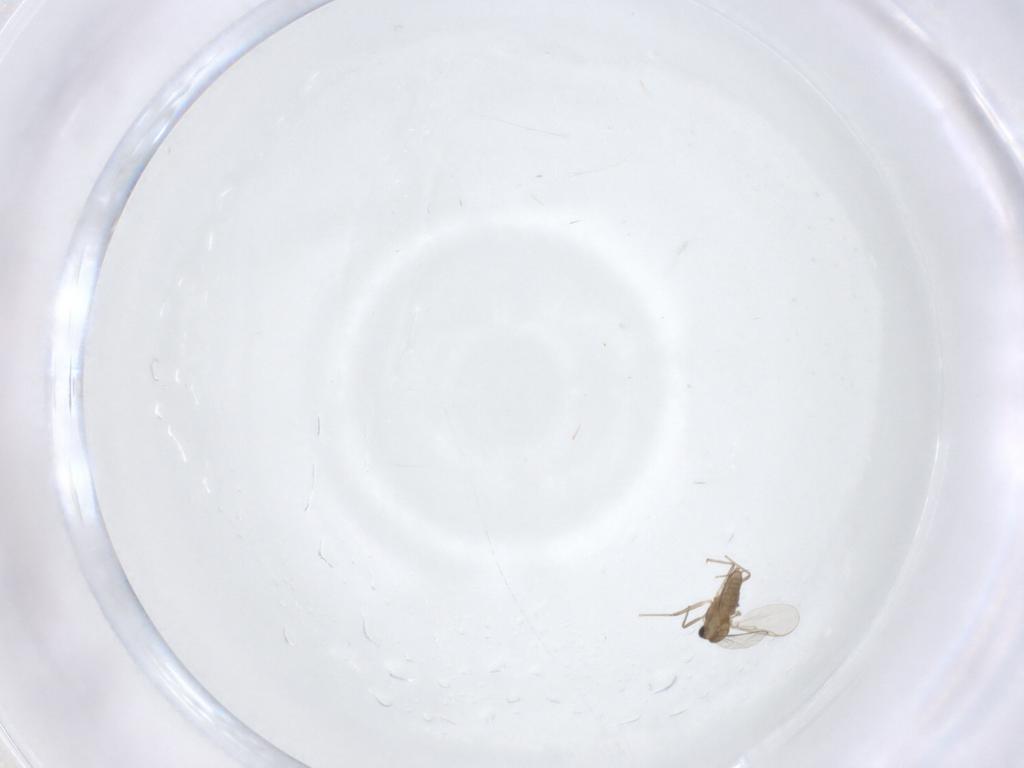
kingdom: Animalia
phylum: Arthropoda
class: Insecta
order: Diptera
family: Chironomidae
